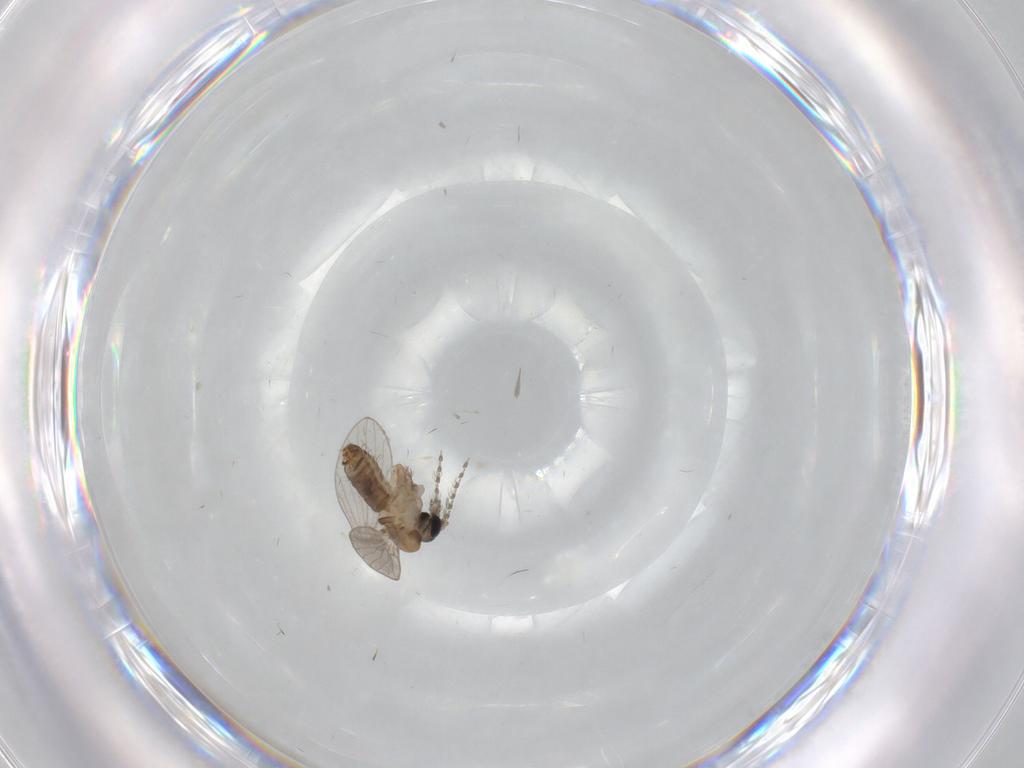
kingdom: Animalia
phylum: Arthropoda
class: Insecta
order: Diptera
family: Psychodidae
